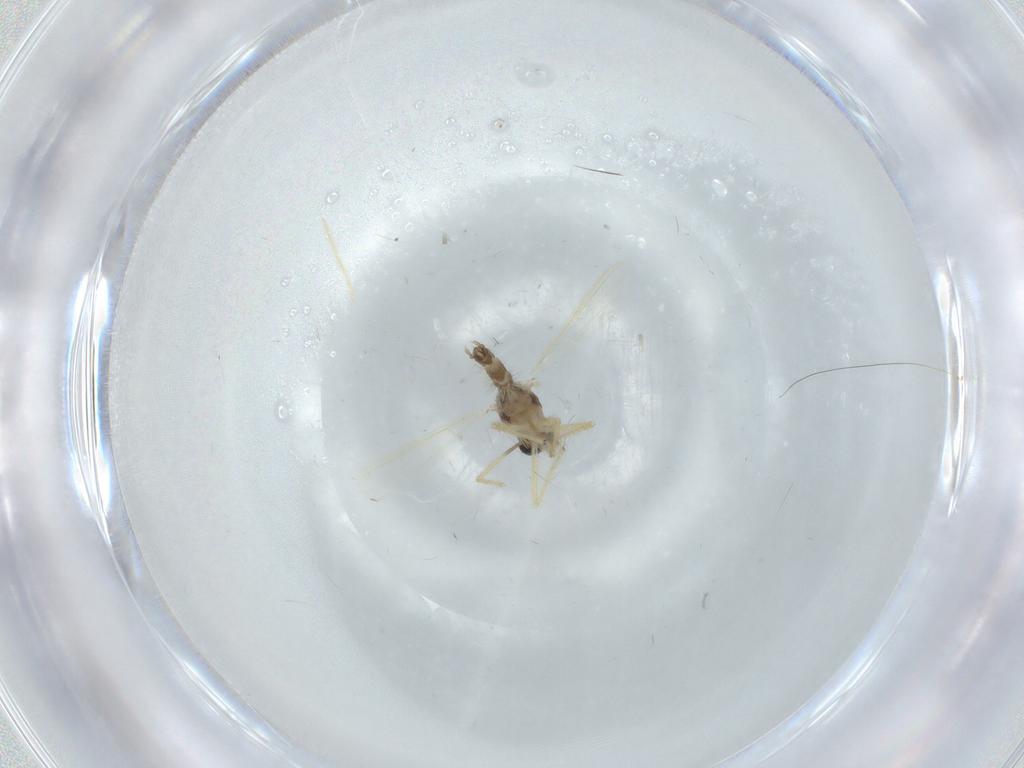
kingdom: Animalia
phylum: Arthropoda
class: Insecta
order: Diptera
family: Chironomidae
